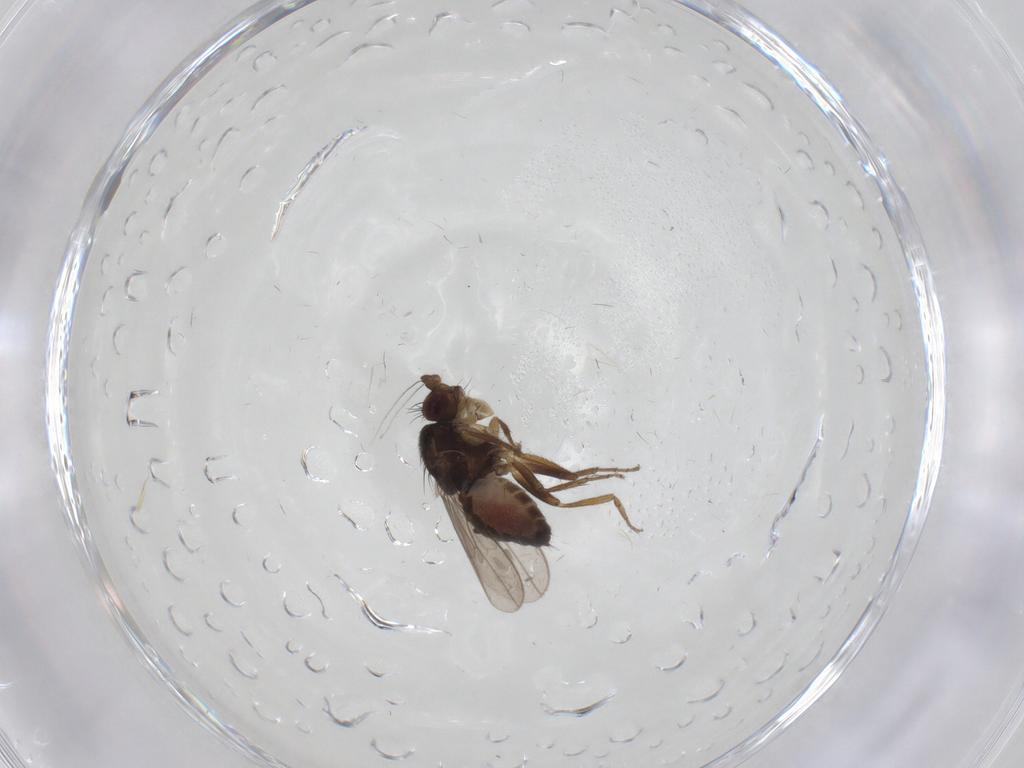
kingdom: Animalia
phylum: Arthropoda
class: Insecta
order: Diptera
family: Sphaeroceridae
